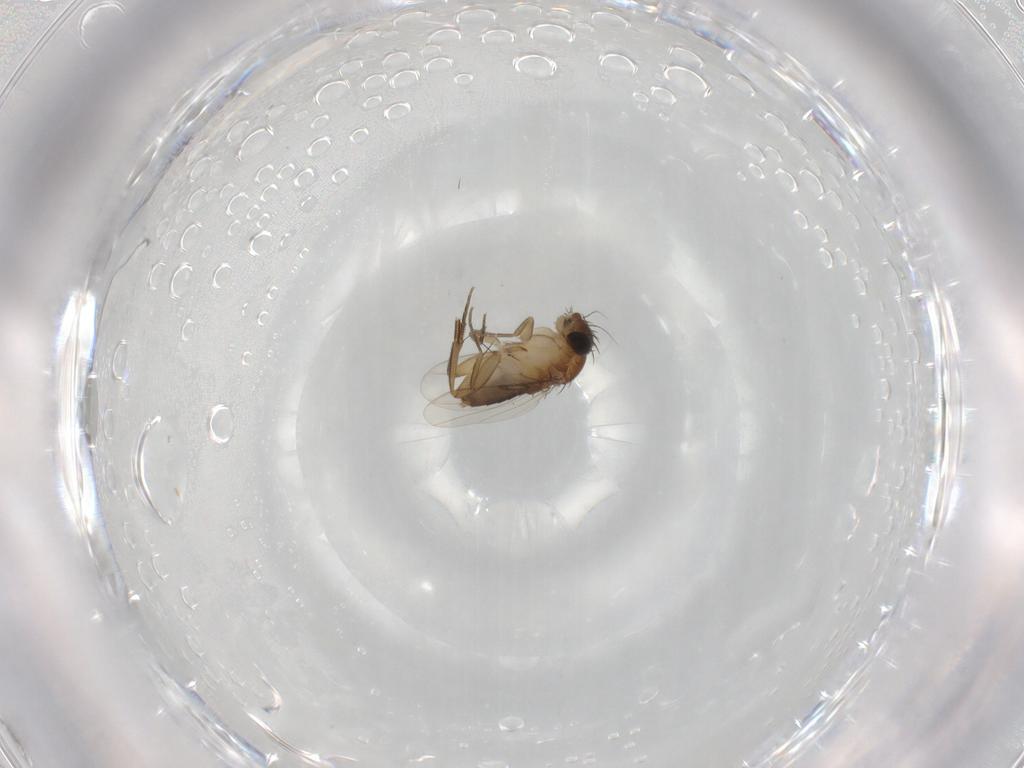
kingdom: Animalia
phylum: Arthropoda
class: Insecta
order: Diptera
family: Phoridae
